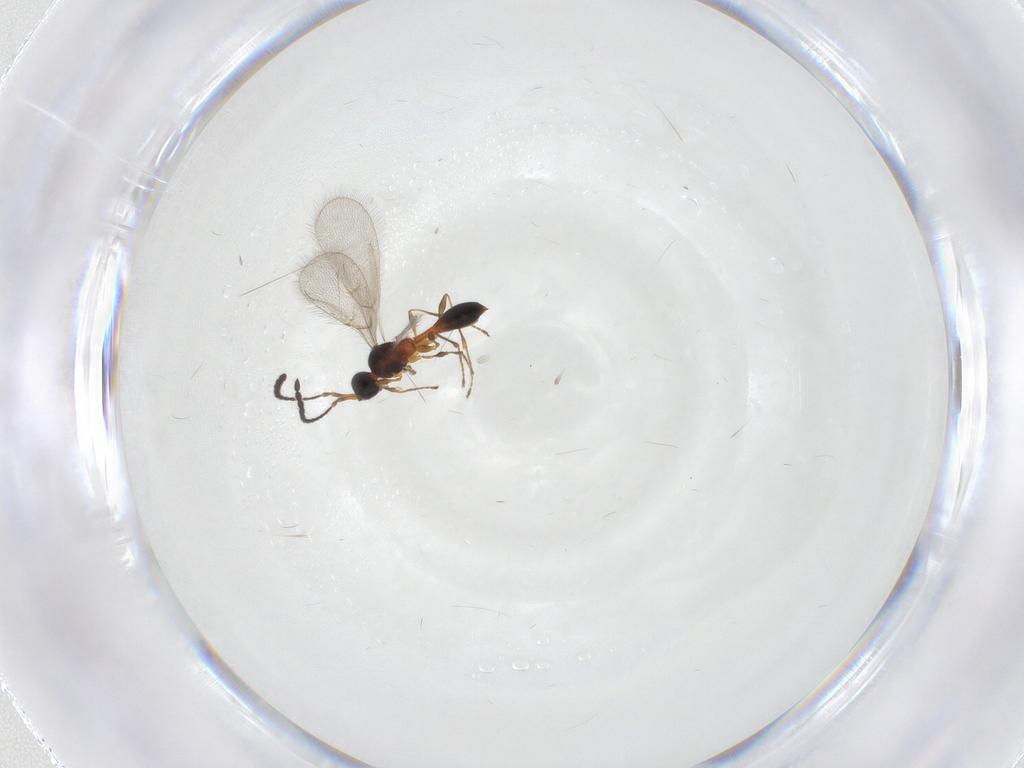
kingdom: Animalia
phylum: Arthropoda
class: Insecta
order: Hymenoptera
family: Diapriidae
